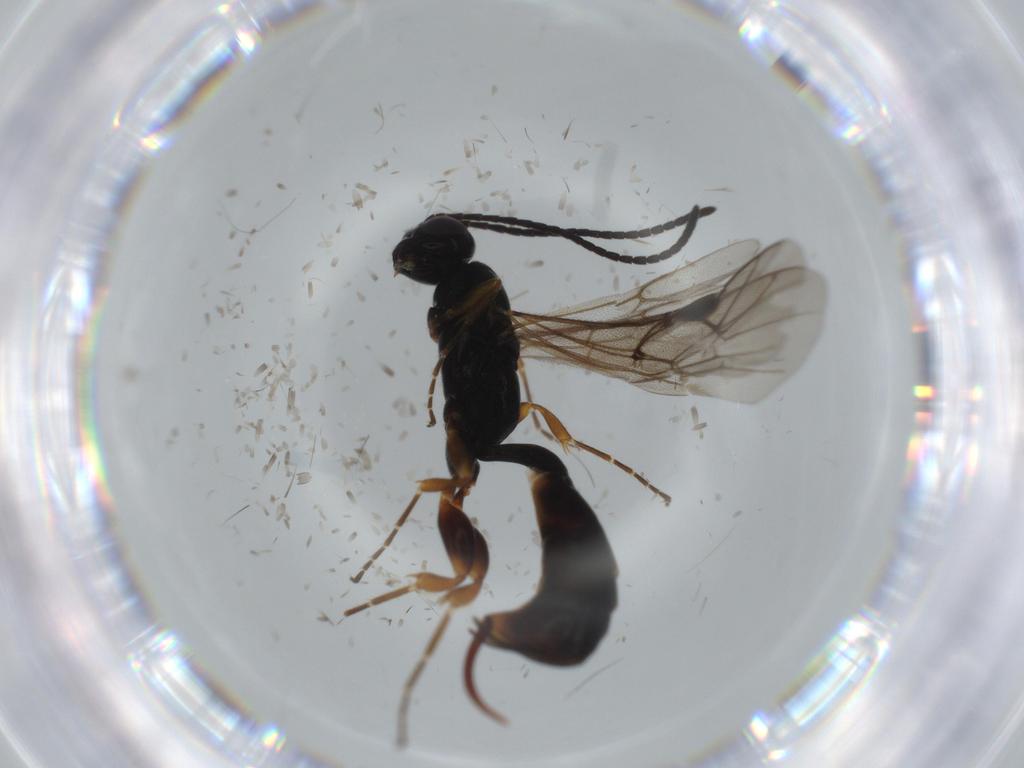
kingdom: Animalia
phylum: Arthropoda
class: Insecta
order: Hymenoptera
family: Ichneumonidae
